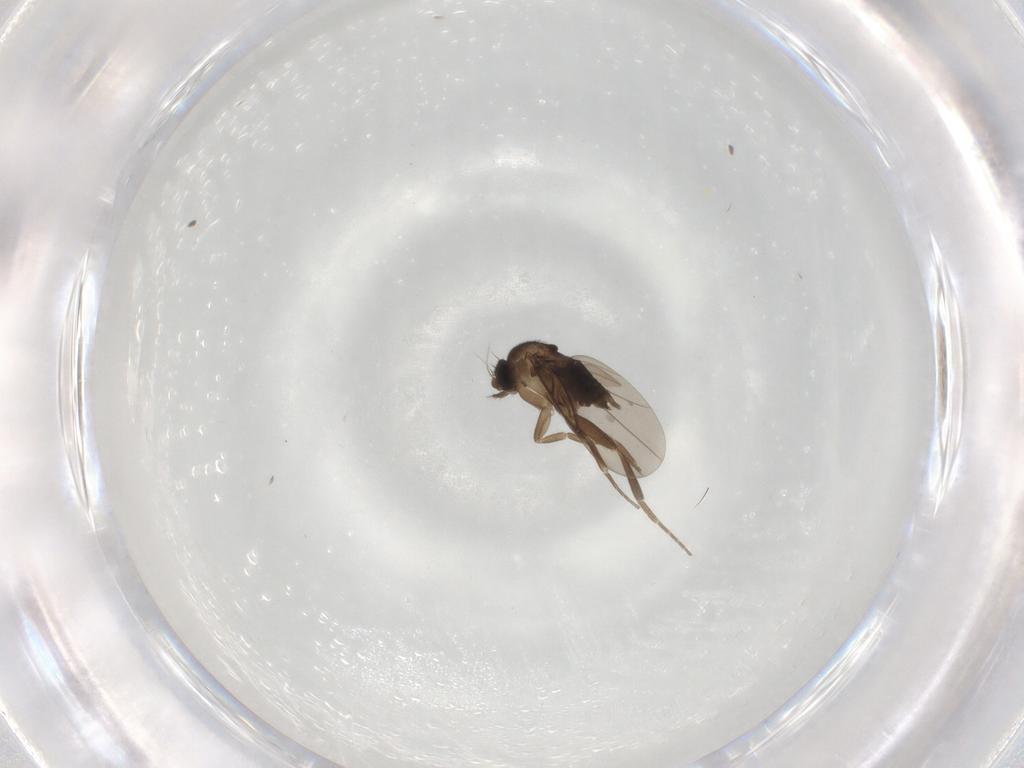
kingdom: Animalia
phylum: Arthropoda
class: Insecta
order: Diptera
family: Phoridae
